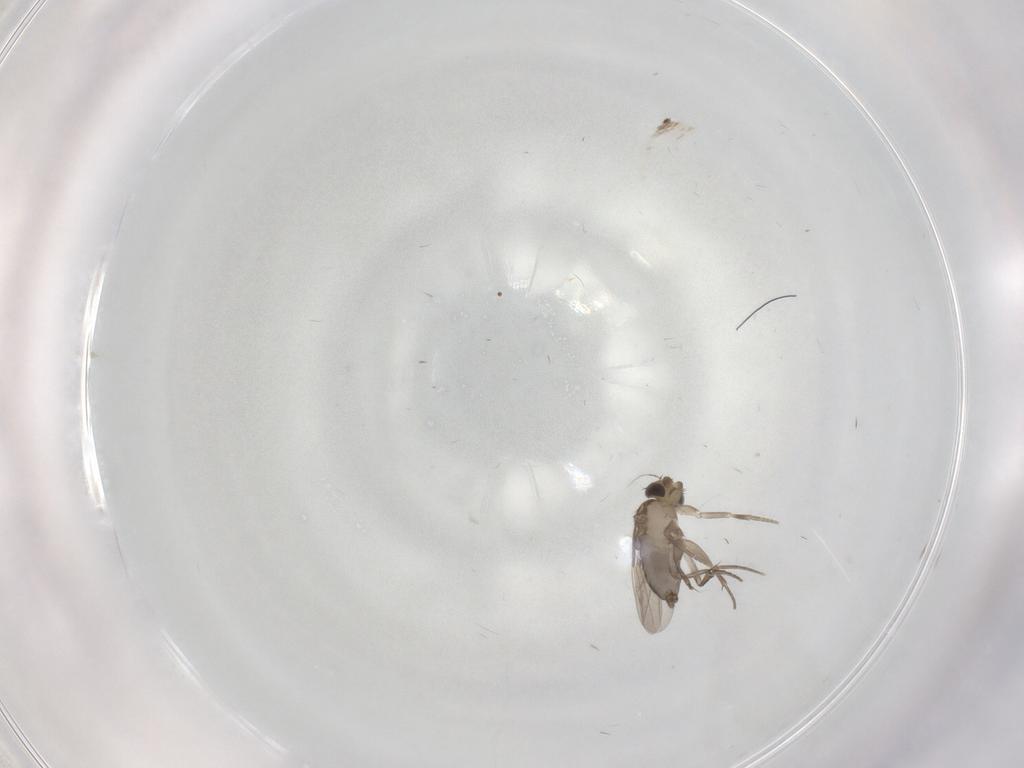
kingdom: Animalia
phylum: Arthropoda
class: Insecta
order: Diptera
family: Phoridae
